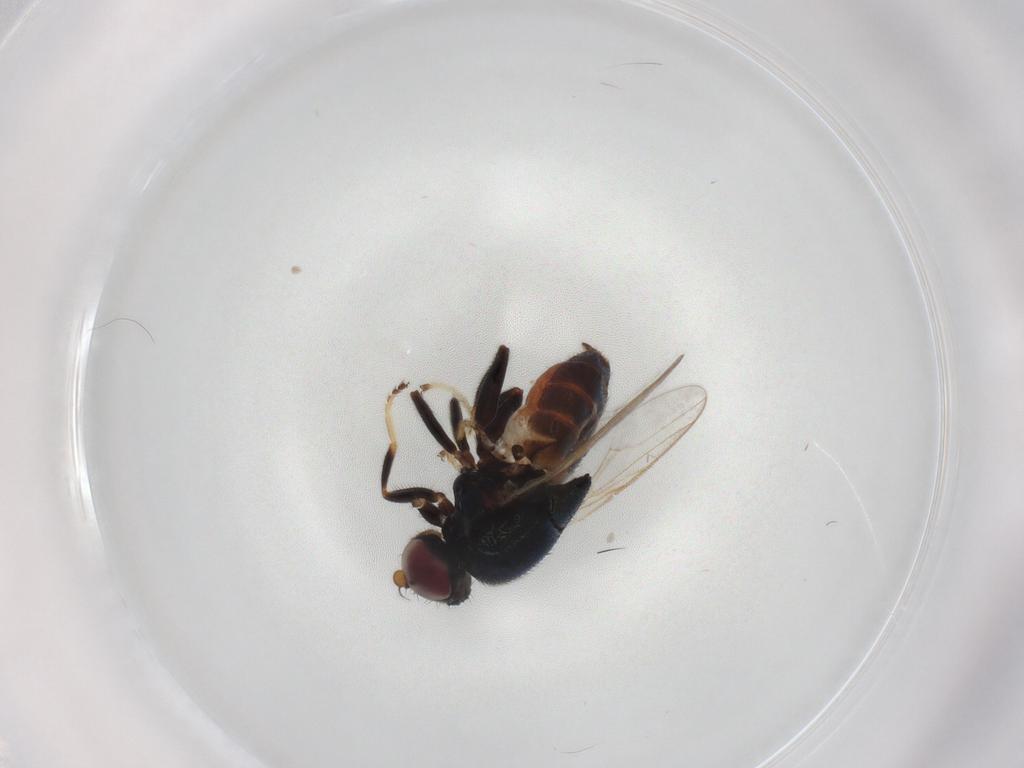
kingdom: Animalia
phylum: Arthropoda
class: Insecta
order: Diptera
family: Chloropidae
